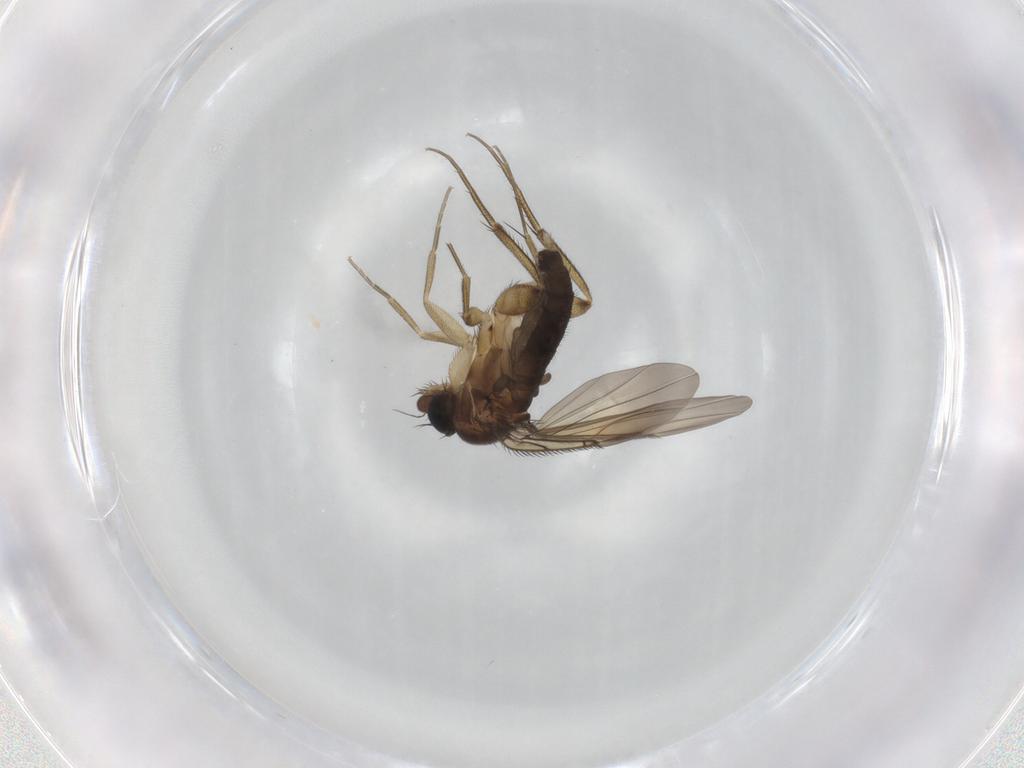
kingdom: Animalia
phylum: Arthropoda
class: Insecta
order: Diptera
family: Phoridae
